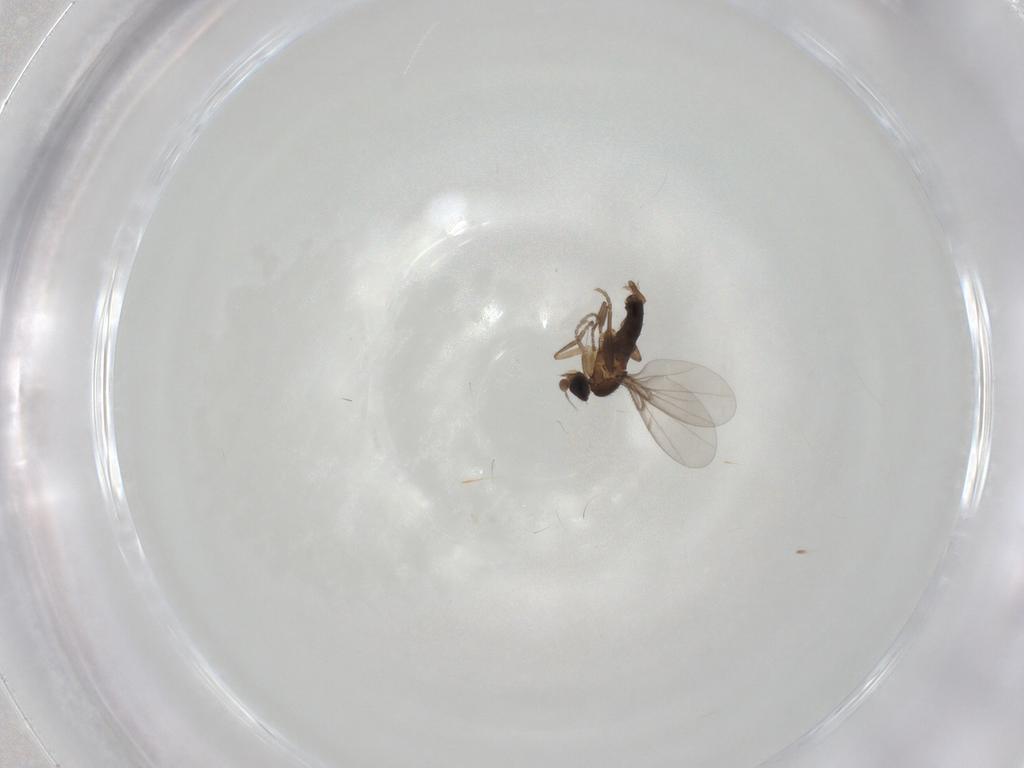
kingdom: Animalia
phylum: Arthropoda
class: Insecta
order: Diptera
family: Phoridae
